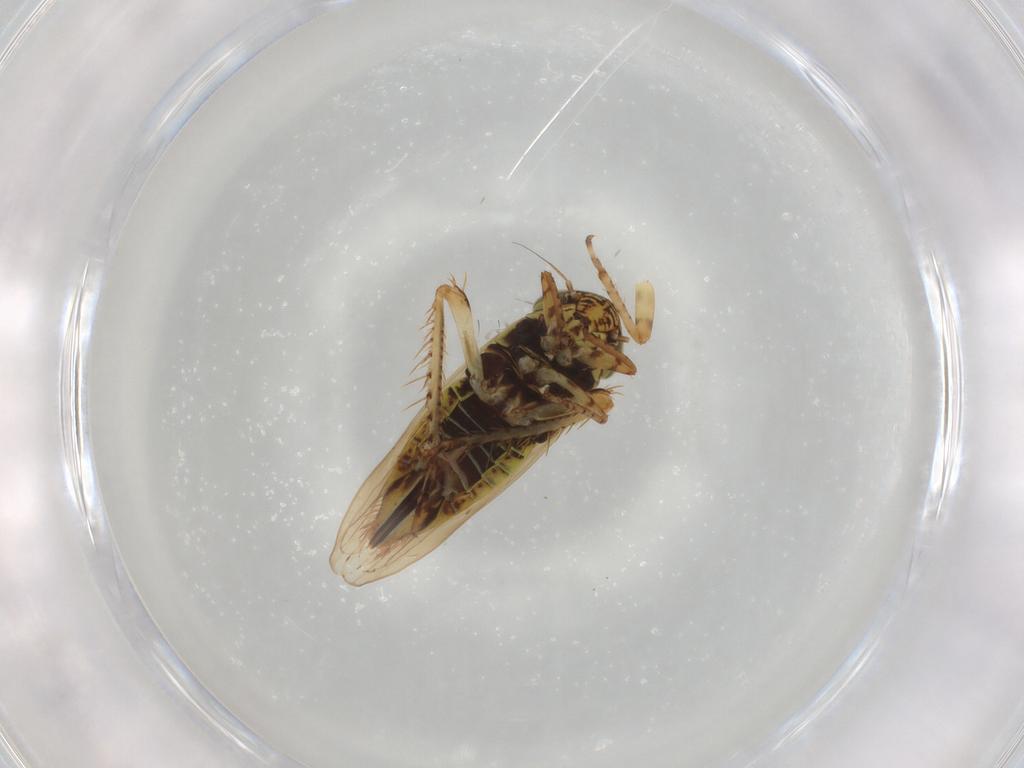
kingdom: Animalia
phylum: Arthropoda
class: Insecta
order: Hemiptera
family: Cicadellidae
